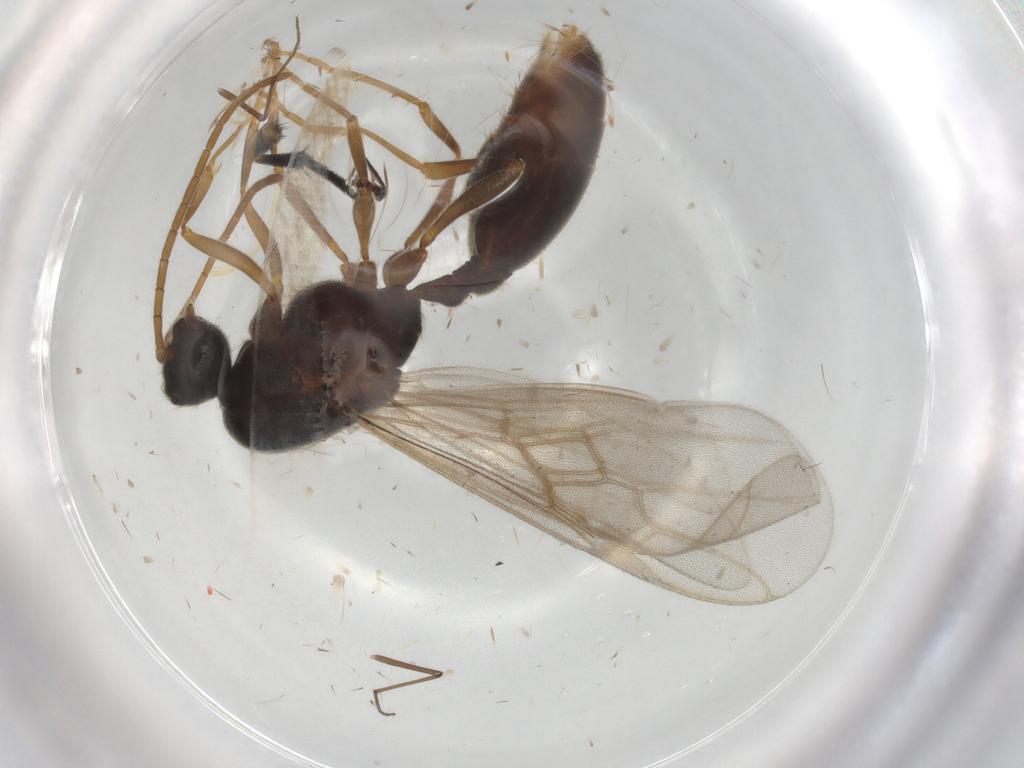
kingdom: Animalia
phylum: Arthropoda
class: Insecta
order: Hymenoptera
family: Formicidae
